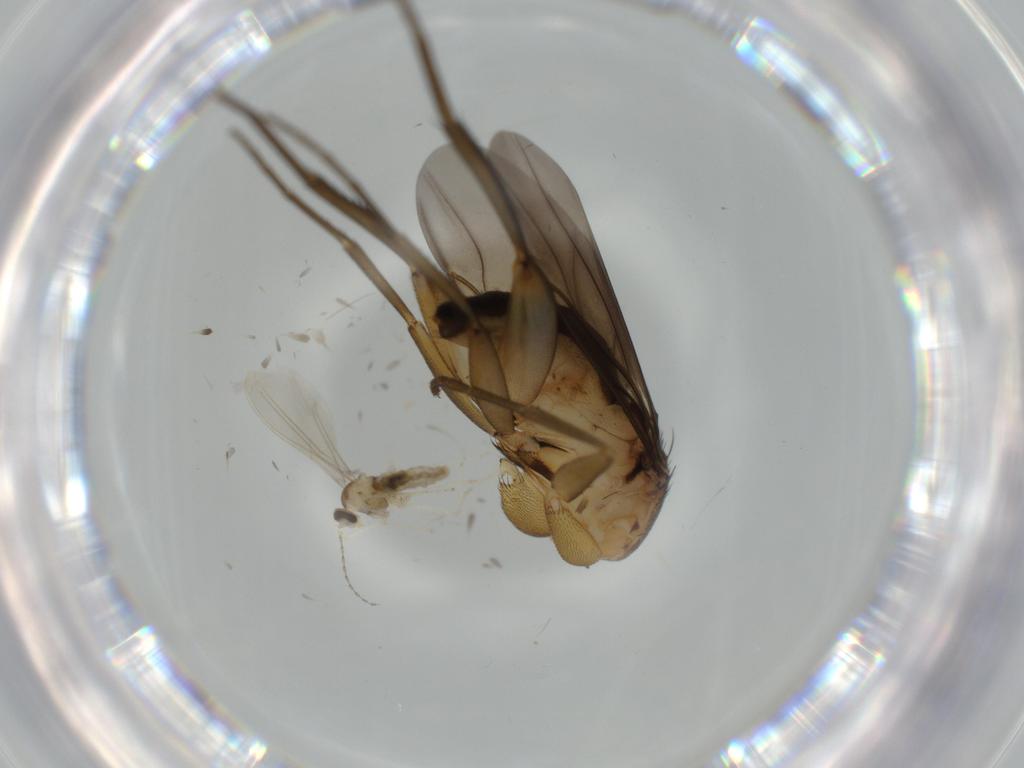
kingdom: Animalia
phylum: Arthropoda
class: Insecta
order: Diptera
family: Phoridae
